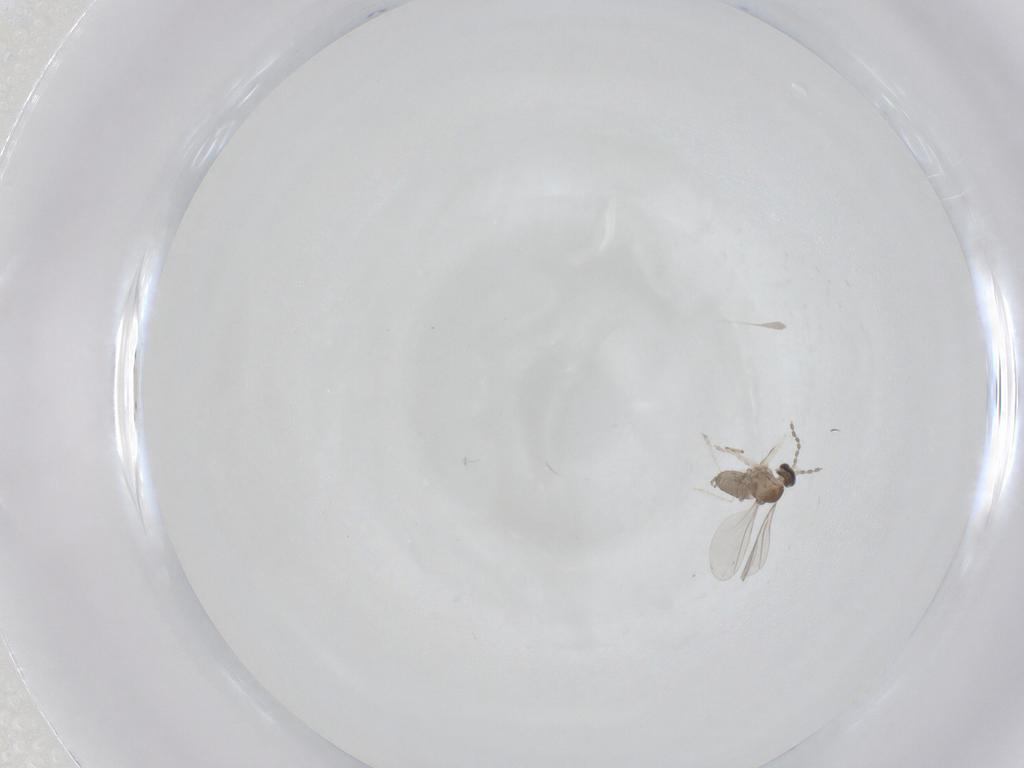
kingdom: Animalia
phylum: Arthropoda
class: Insecta
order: Diptera
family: Cecidomyiidae
